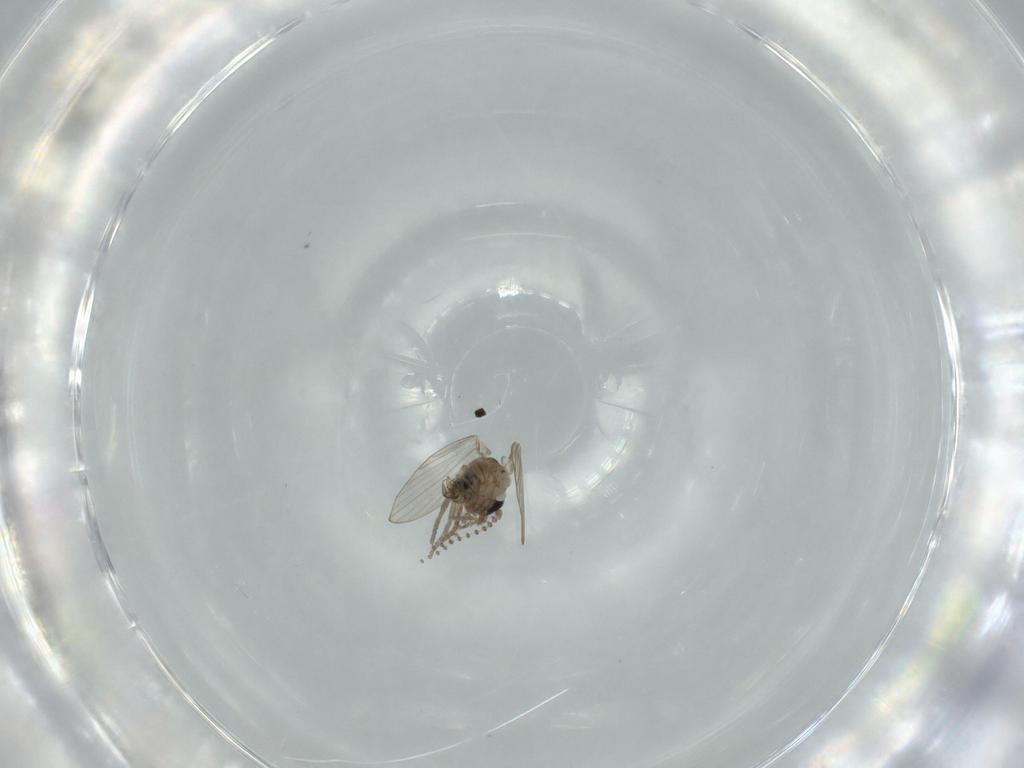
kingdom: Animalia
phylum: Arthropoda
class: Insecta
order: Diptera
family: Psychodidae
